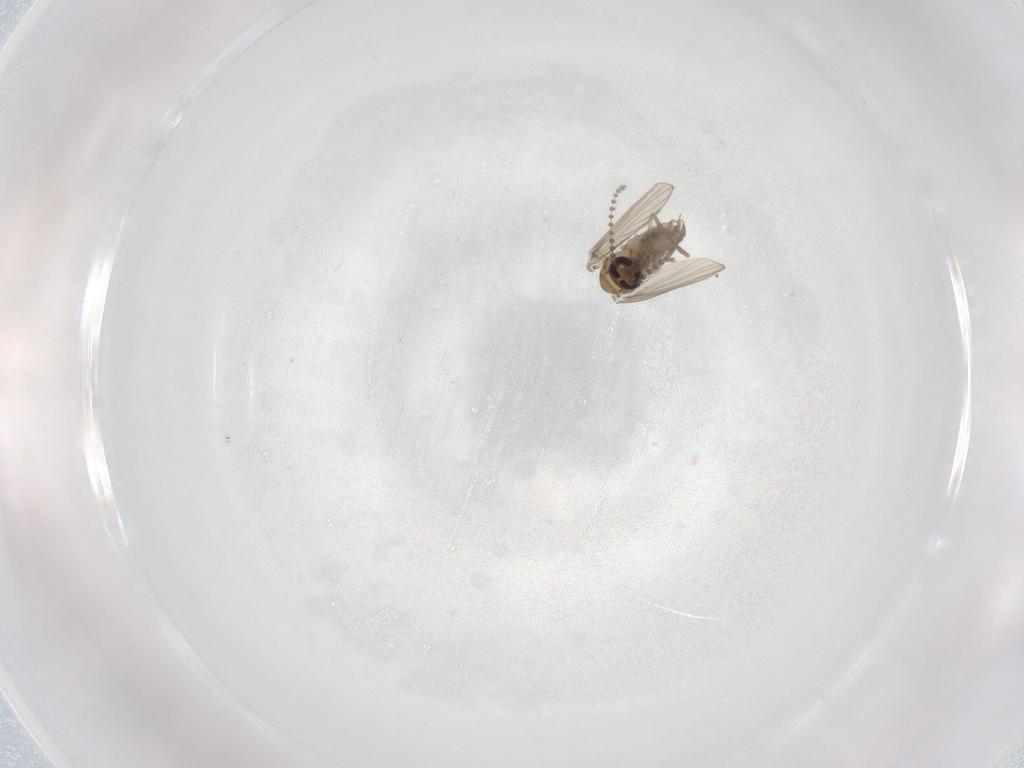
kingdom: Animalia
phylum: Arthropoda
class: Insecta
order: Diptera
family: Psychodidae
